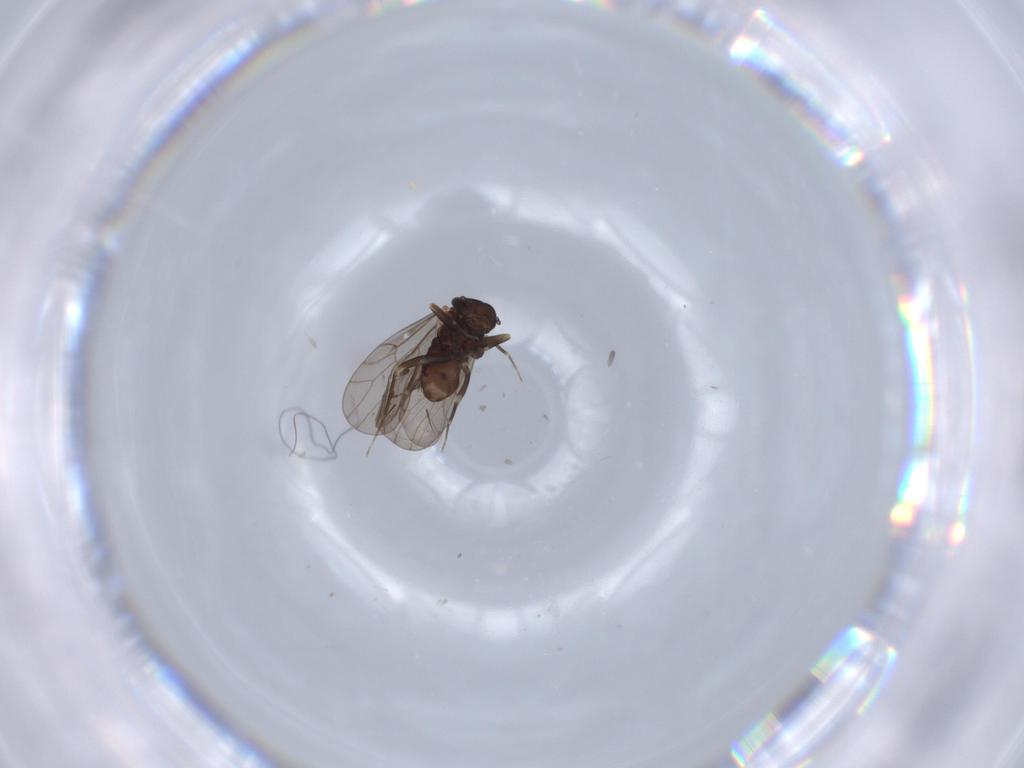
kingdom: Animalia
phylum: Arthropoda
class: Insecta
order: Psocodea
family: Lepidopsocidae
